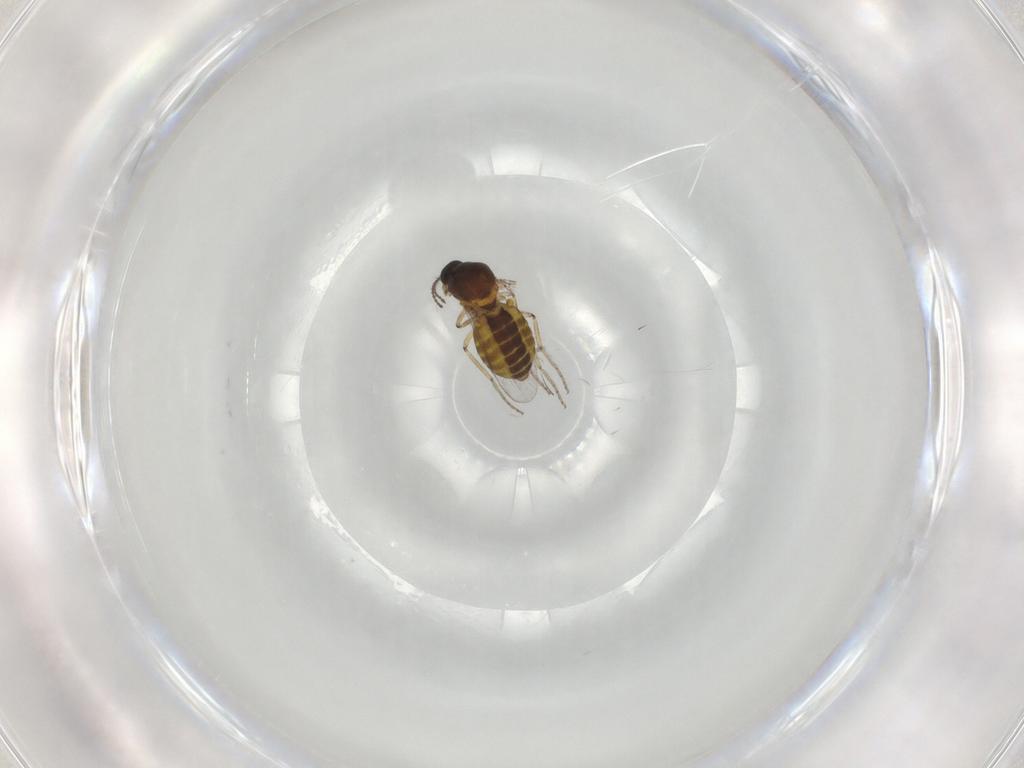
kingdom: Animalia
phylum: Arthropoda
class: Insecta
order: Diptera
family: Ceratopogonidae
